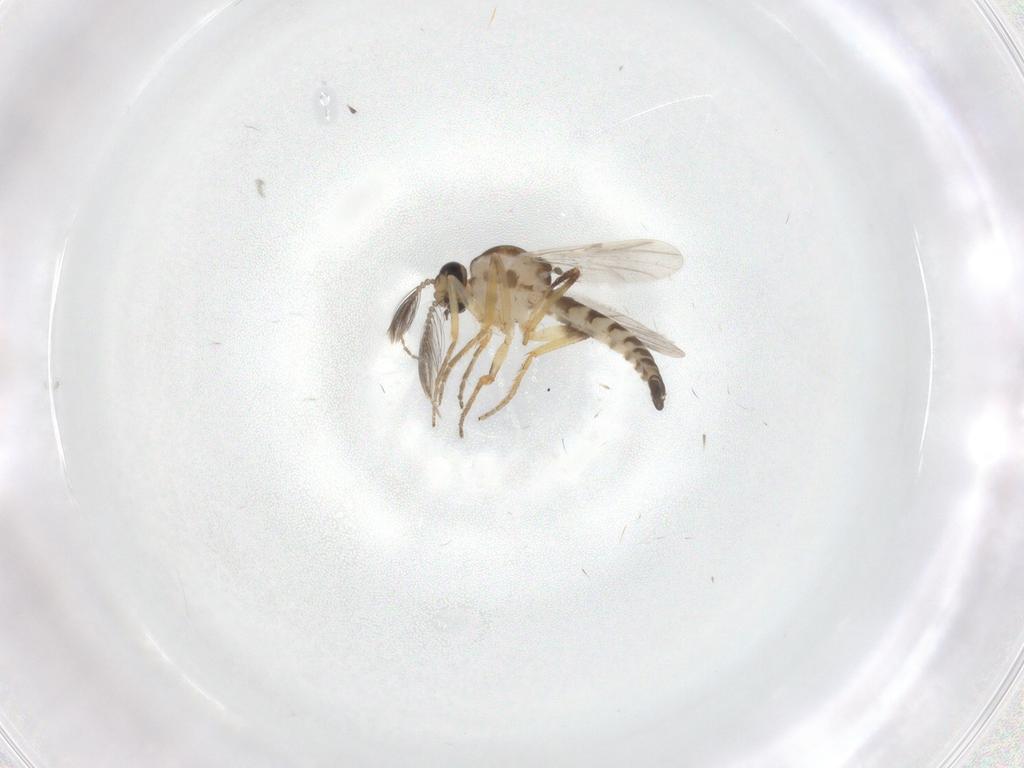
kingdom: Animalia
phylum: Arthropoda
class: Insecta
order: Diptera
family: Ceratopogonidae
